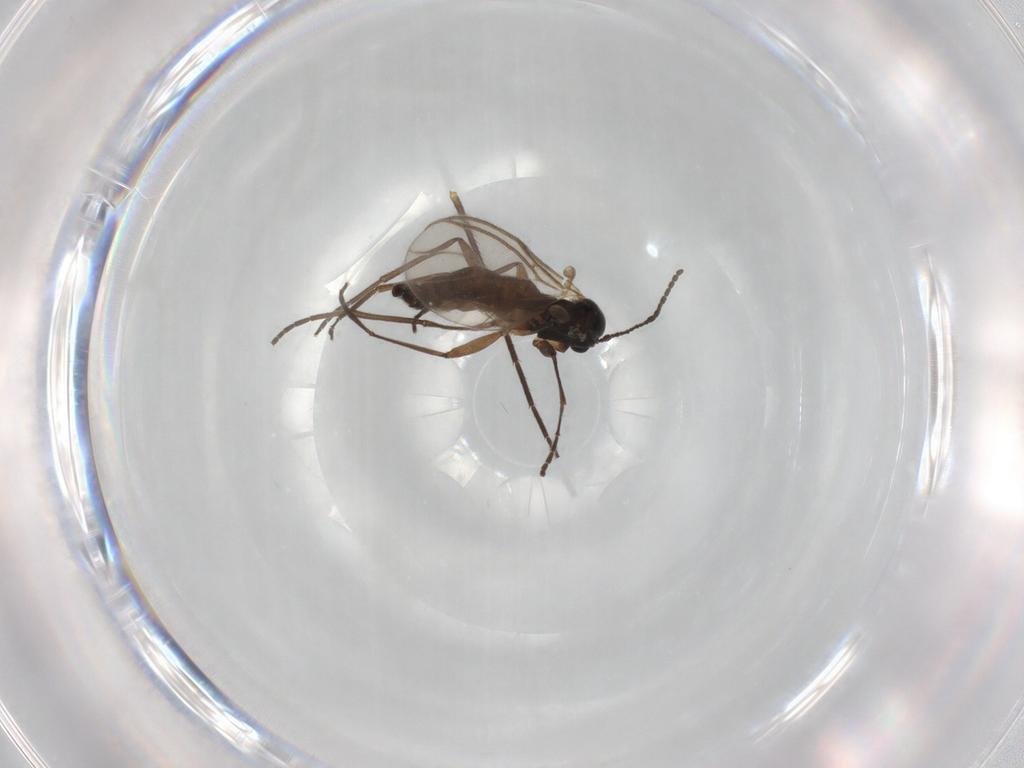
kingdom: Animalia
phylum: Arthropoda
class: Insecta
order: Diptera
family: Sciaridae
